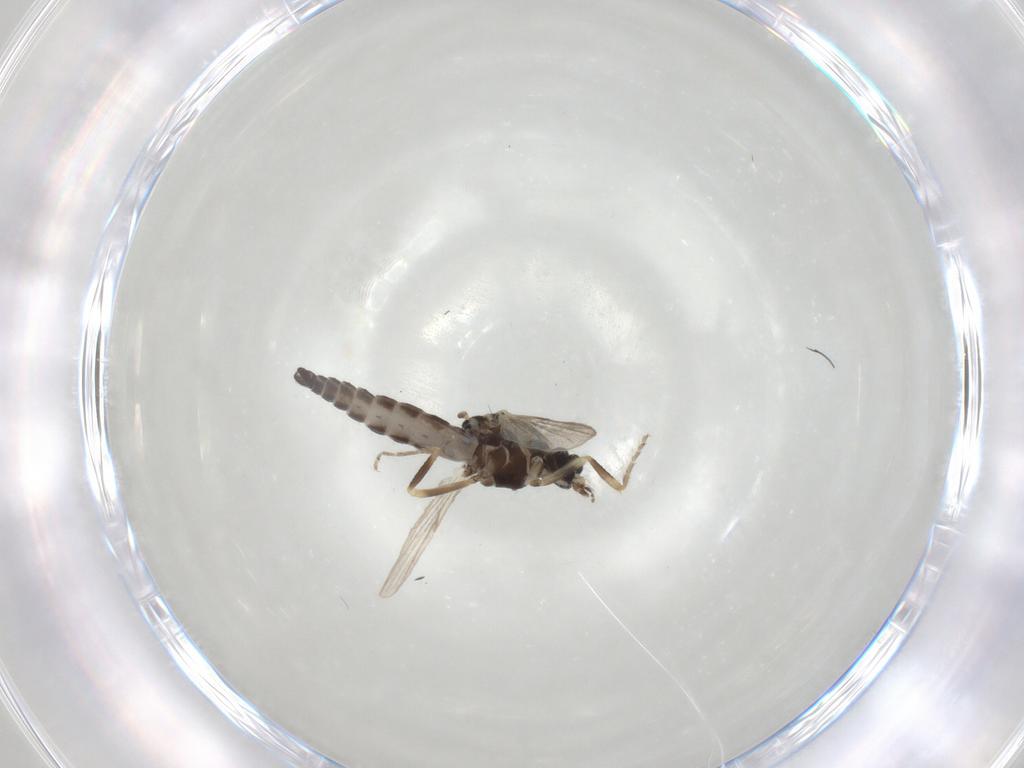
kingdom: Animalia
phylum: Arthropoda
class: Insecta
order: Diptera
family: Ceratopogonidae
